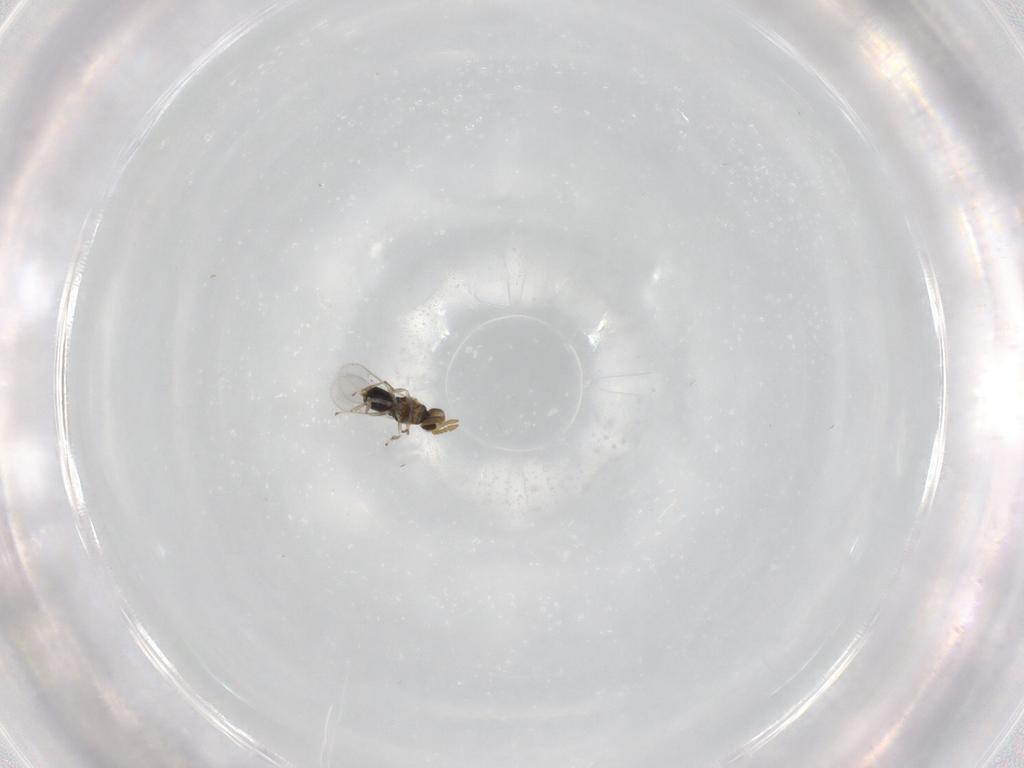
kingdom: Animalia
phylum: Arthropoda
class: Insecta
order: Hymenoptera
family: Aphelinidae
